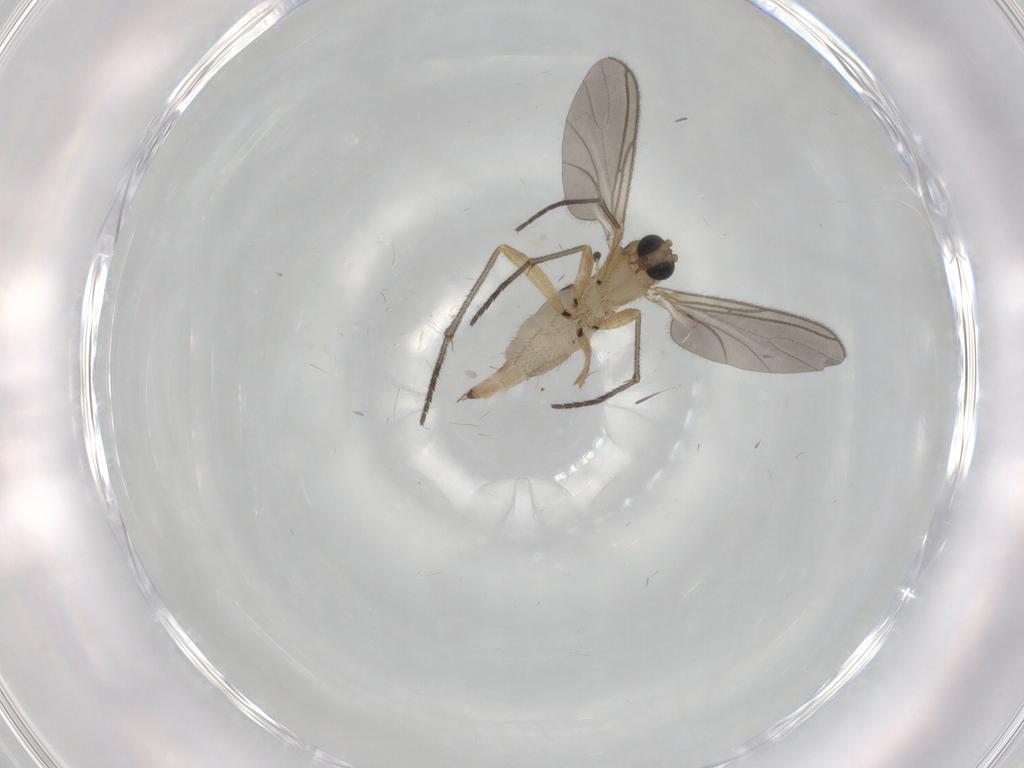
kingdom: Animalia
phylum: Arthropoda
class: Insecta
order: Diptera
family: Sciaridae
